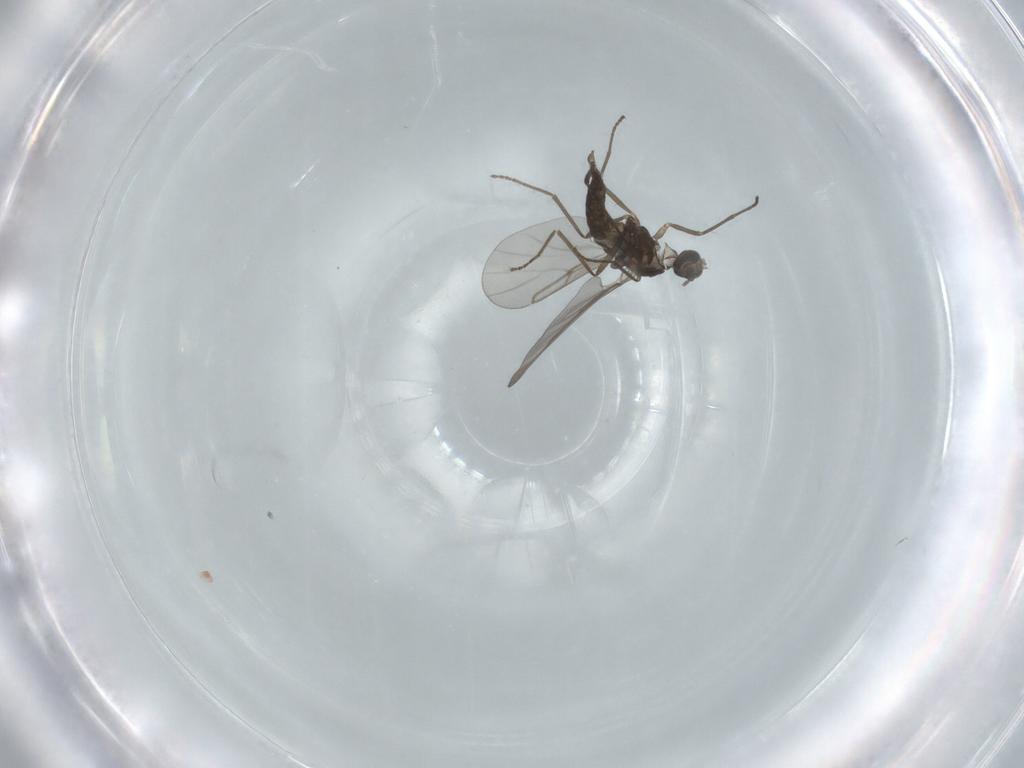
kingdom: Animalia
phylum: Arthropoda
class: Insecta
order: Diptera
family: Cecidomyiidae
